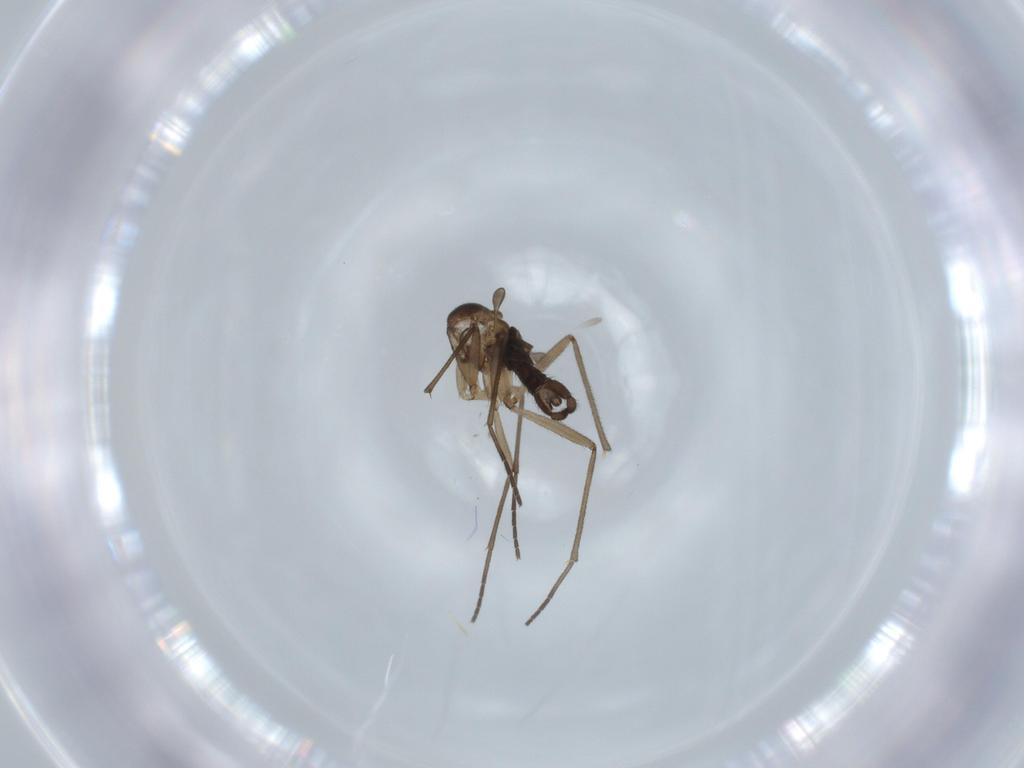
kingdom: Animalia
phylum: Arthropoda
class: Insecta
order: Diptera
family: Sciaridae
